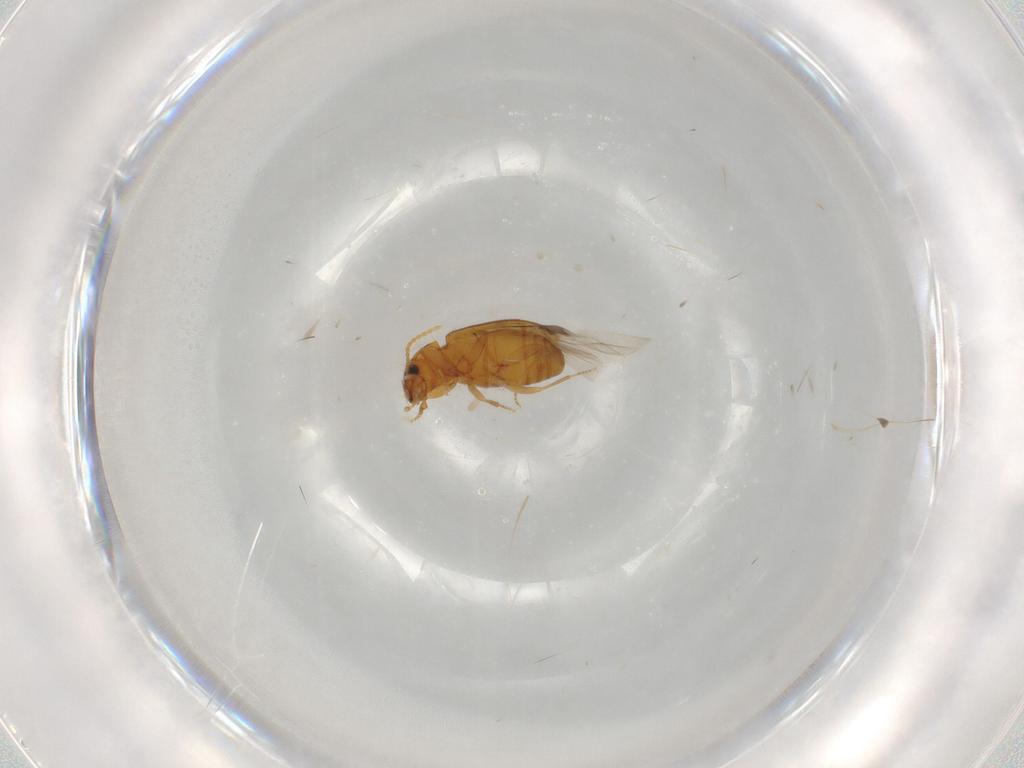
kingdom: Animalia
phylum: Arthropoda
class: Insecta
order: Coleoptera
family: Carabidae
